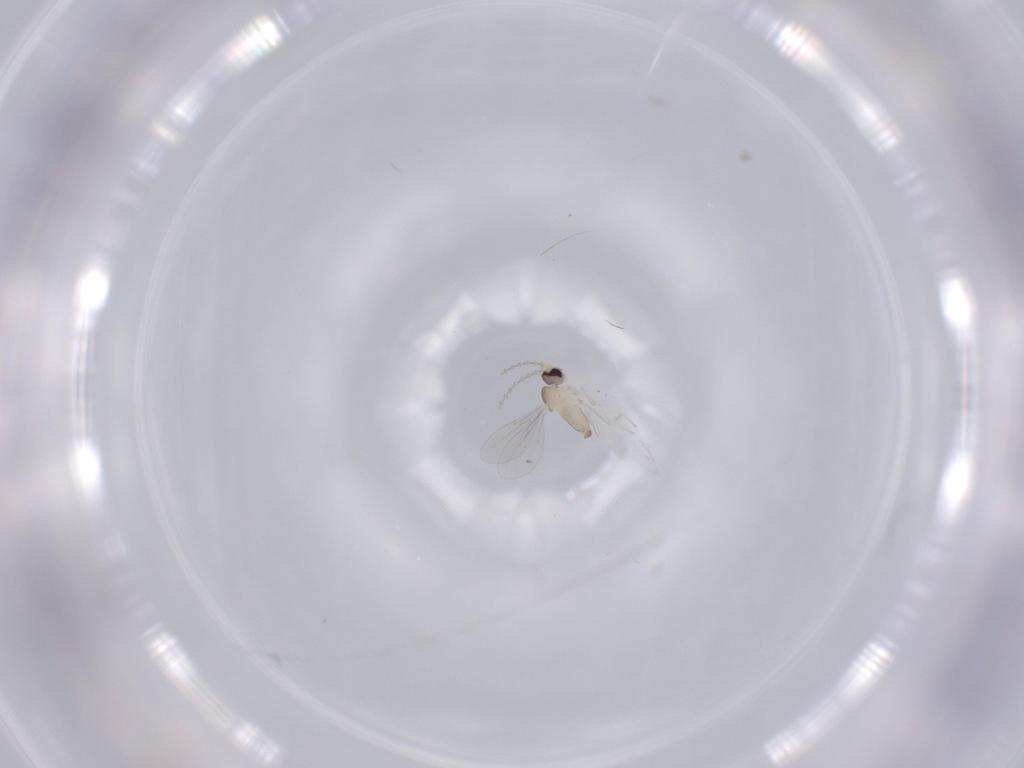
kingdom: Animalia
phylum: Arthropoda
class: Insecta
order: Diptera
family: Cecidomyiidae
